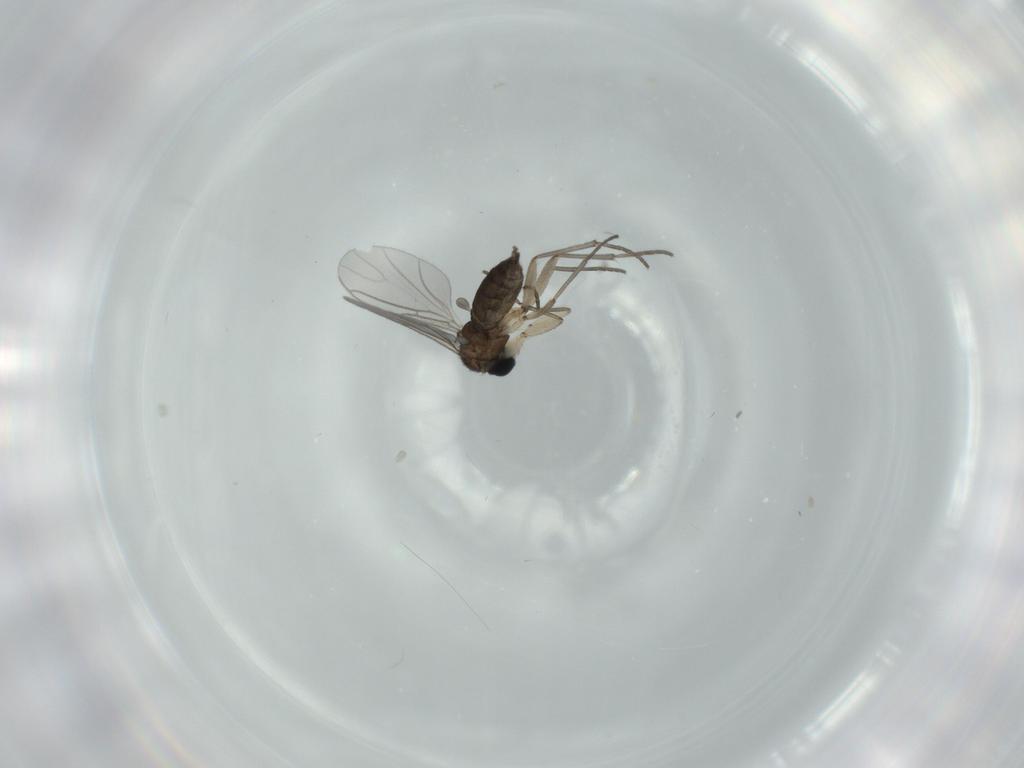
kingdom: Animalia
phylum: Arthropoda
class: Insecta
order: Diptera
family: Sciaridae
